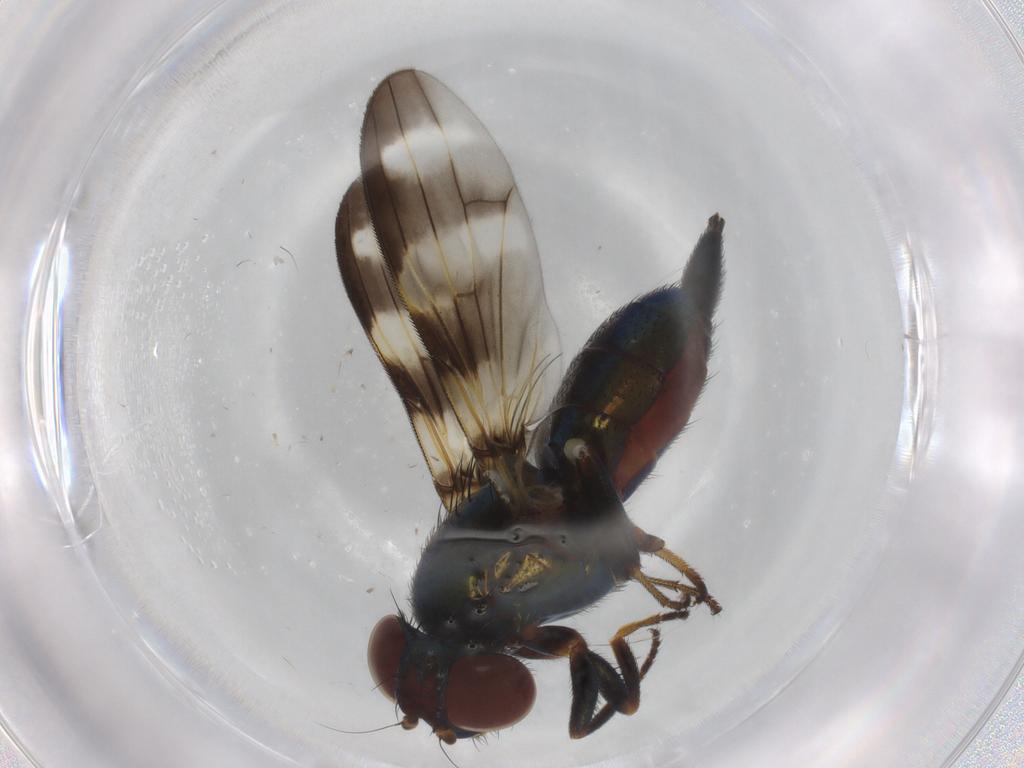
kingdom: Animalia
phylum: Arthropoda
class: Insecta
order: Diptera
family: Ulidiidae
